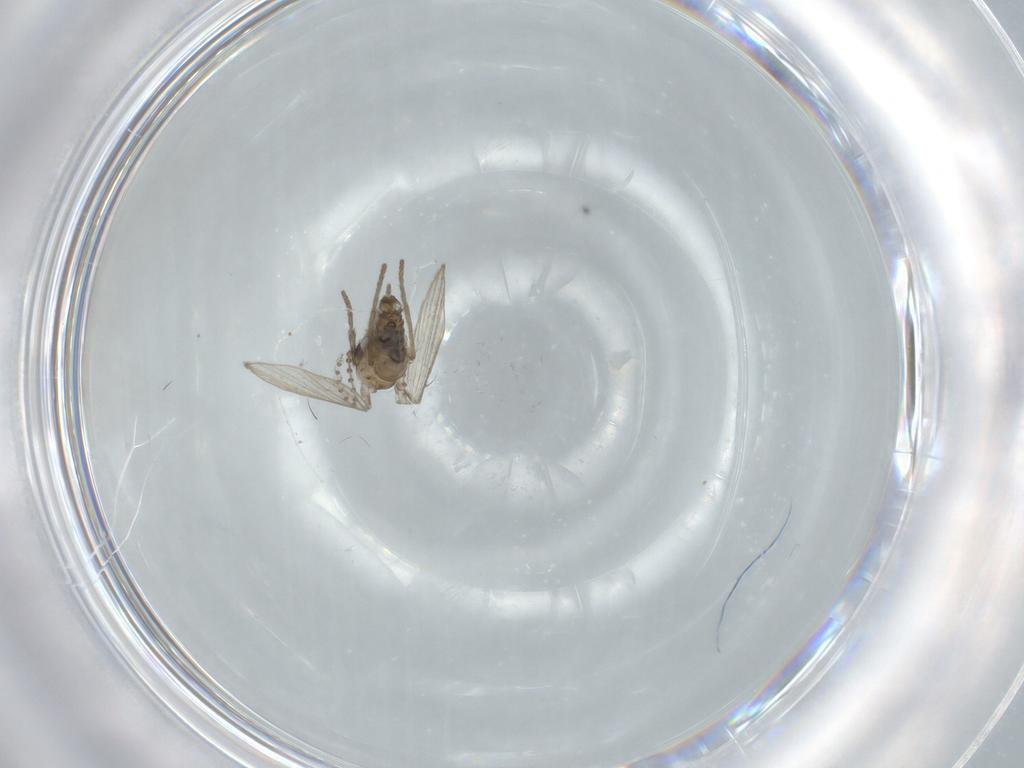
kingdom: Animalia
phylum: Arthropoda
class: Insecta
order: Diptera
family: Psychodidae
